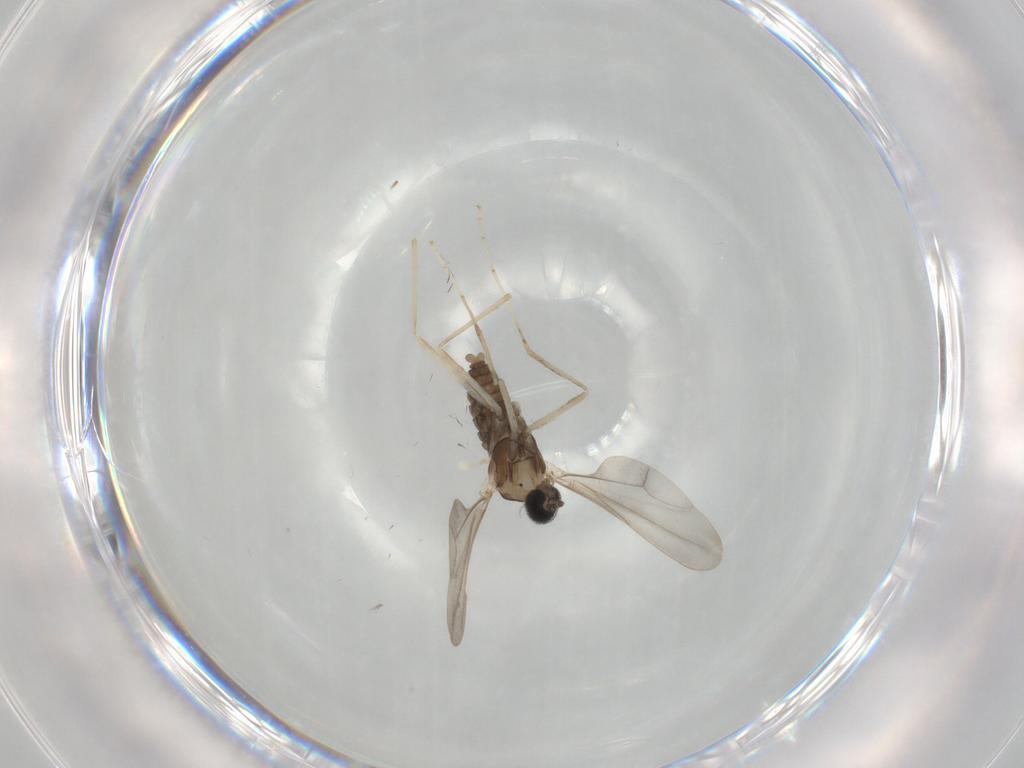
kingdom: Animalia
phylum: Arthropoda
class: Insecta
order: Diptera
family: Cecidomyiidae
